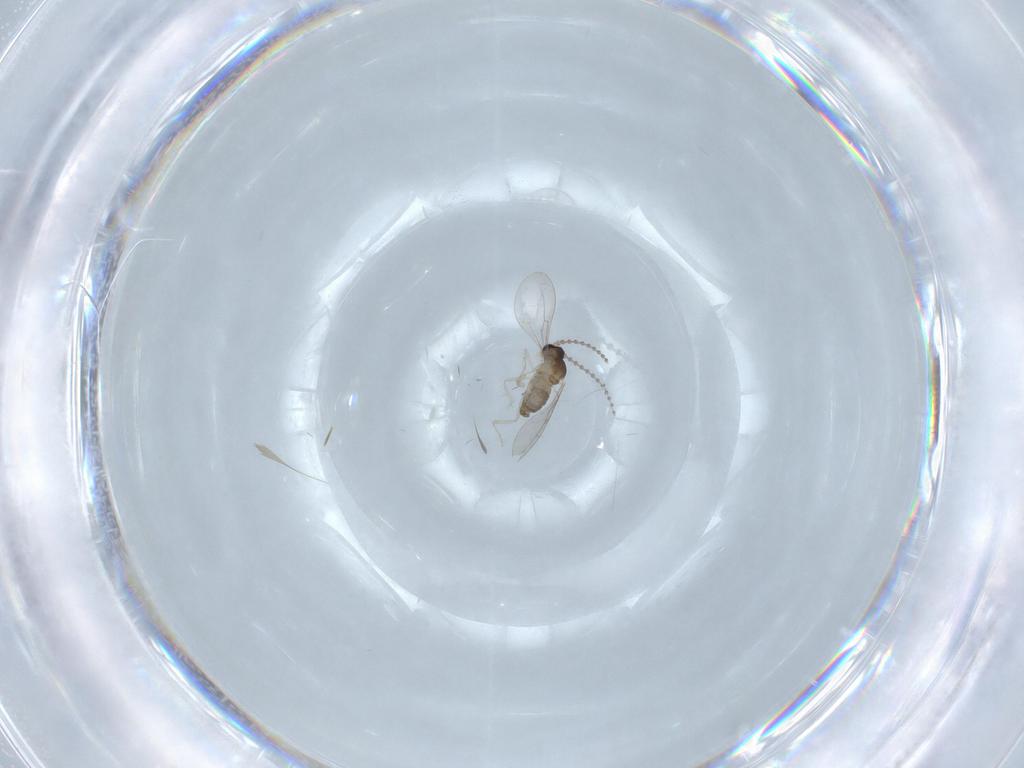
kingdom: Animalia
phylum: Arthropoda
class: Insecta
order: Diptera
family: Cecidomyiidae
